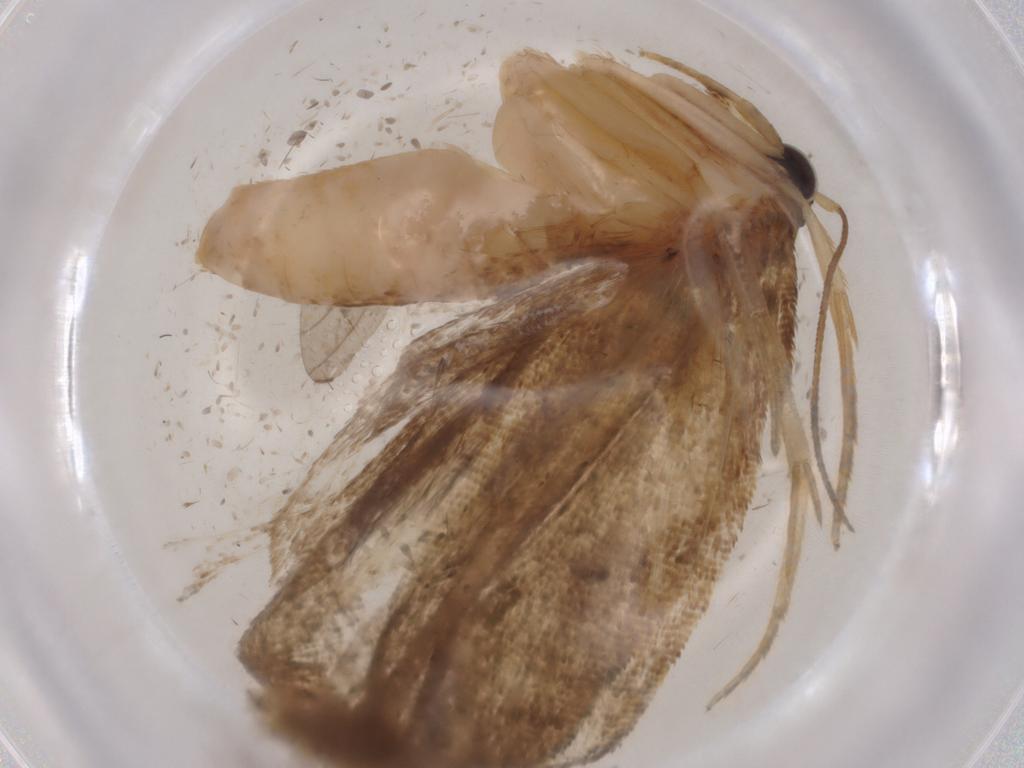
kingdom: Animalia
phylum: Arthropoda
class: Insecta
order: Lepidoptera
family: Tortricidae
